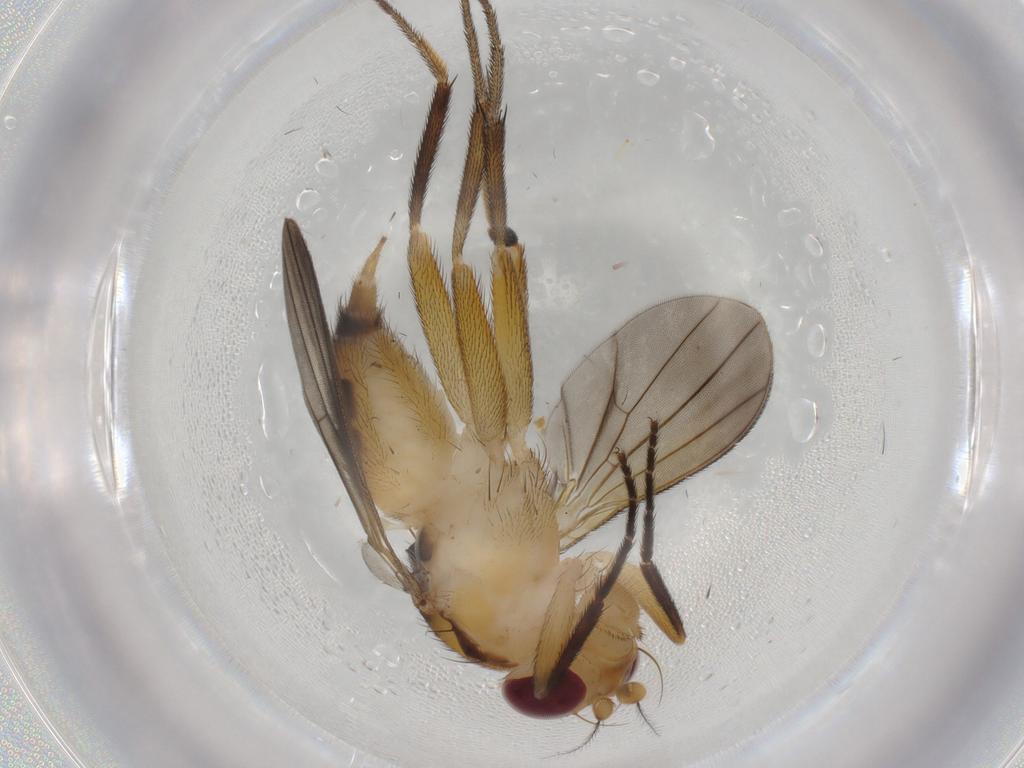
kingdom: Animalia
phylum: Arthropoda
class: Insecta
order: Diptera
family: Clusiidae
